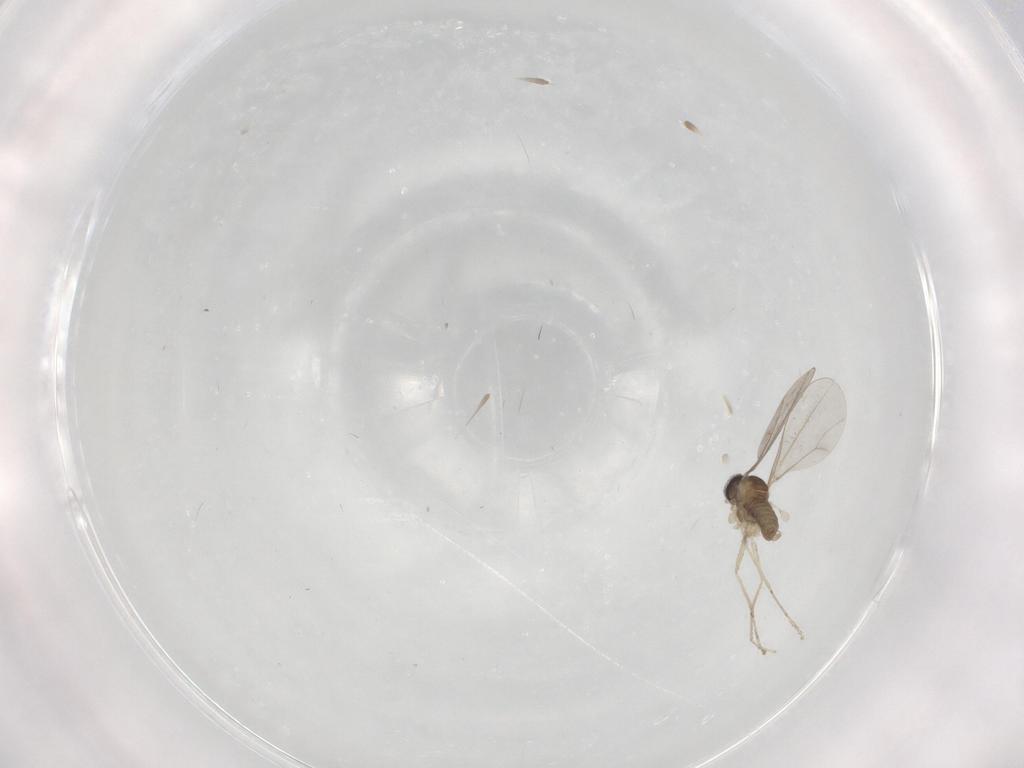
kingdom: Animalia
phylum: Arthropoda
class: Insecta
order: Diptera
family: Cecidomyiidae
